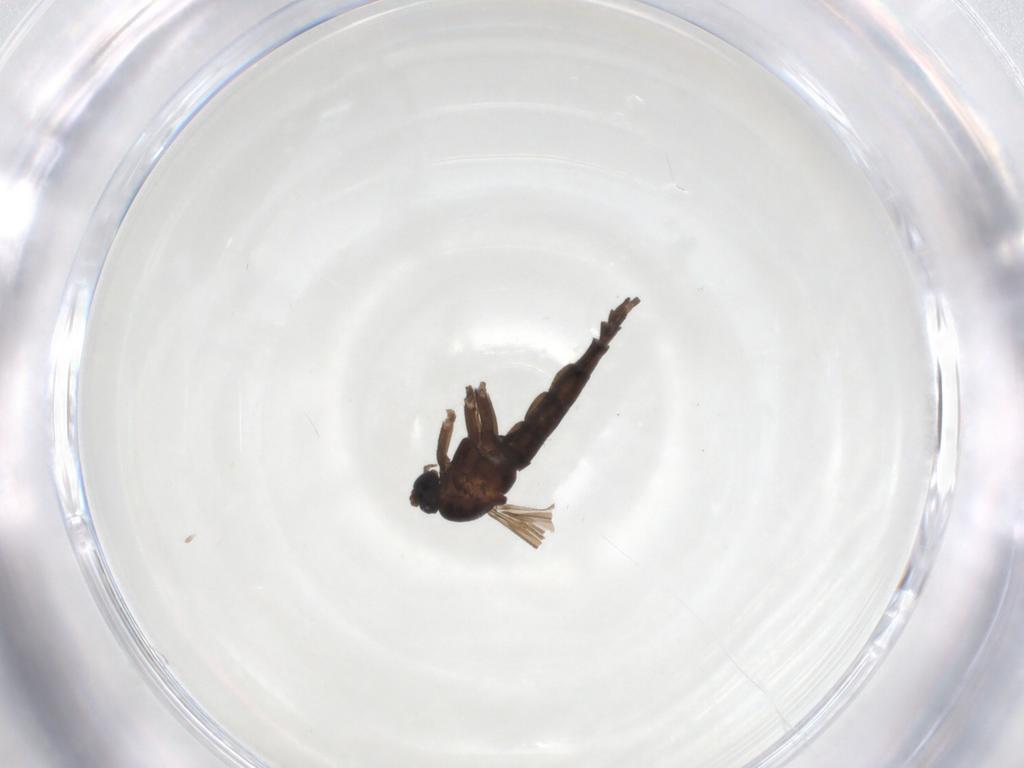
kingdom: Animalia
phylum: Arthropoda
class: Insecta
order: Diptera
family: Sciaridae
